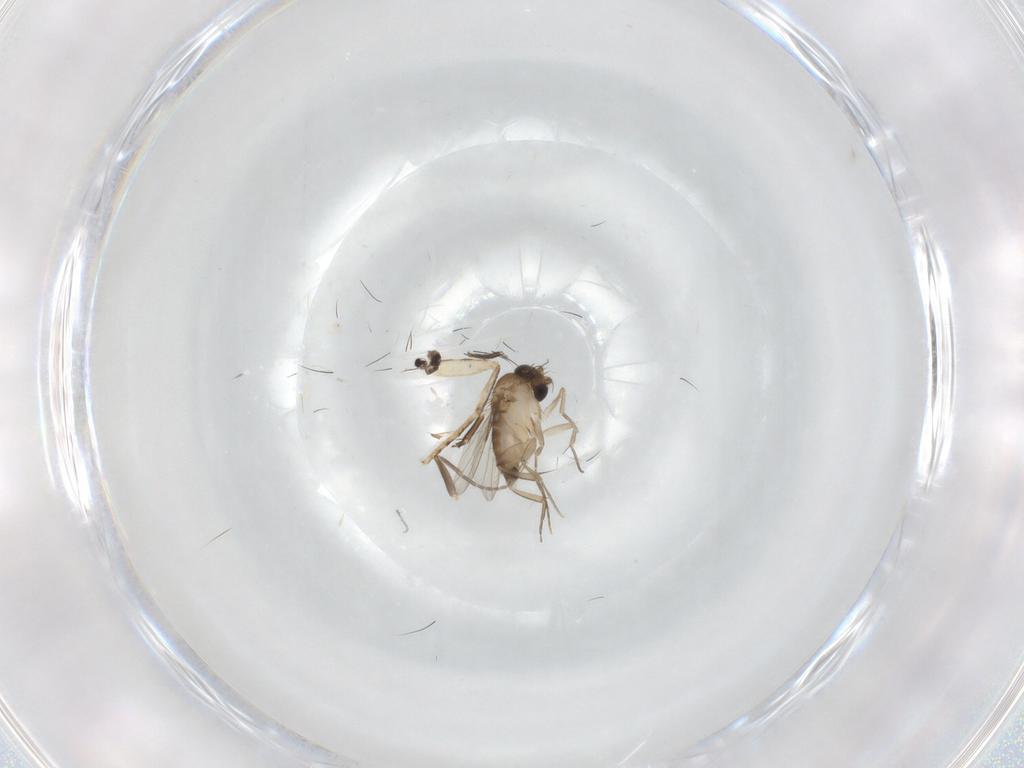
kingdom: Animalia
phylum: Arthropoda
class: Insecta
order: Diptera
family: Phoridae
